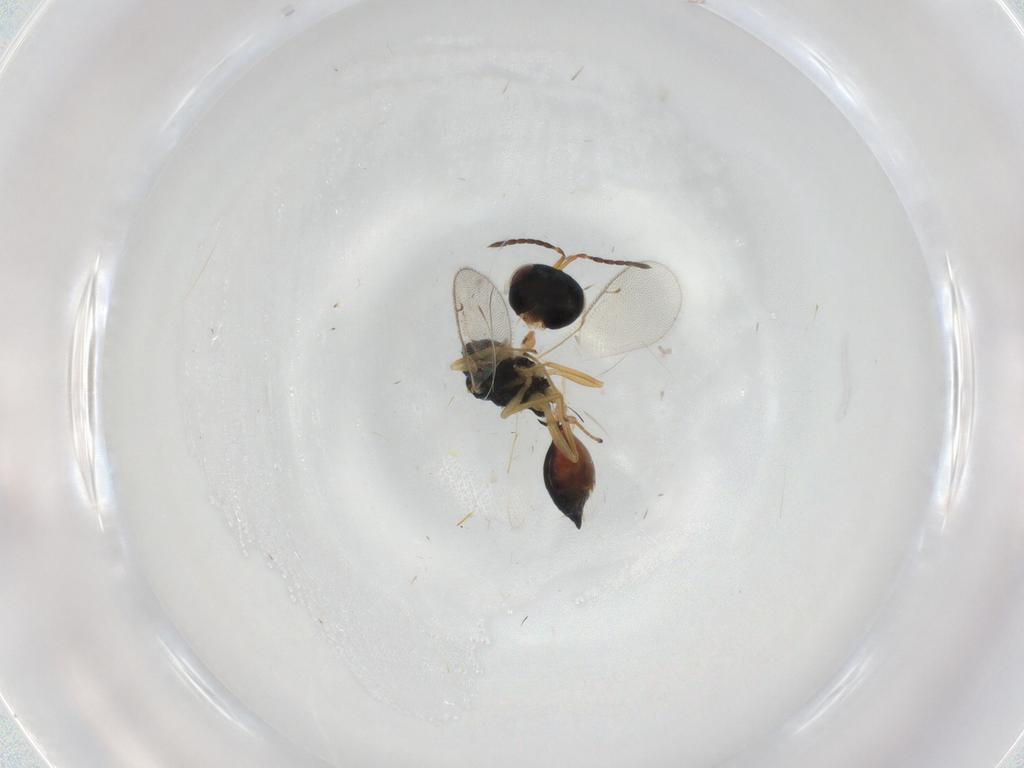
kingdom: Animalia
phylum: Arthropoda
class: Insecta
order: Hymenoptera
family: Pteromalidae
